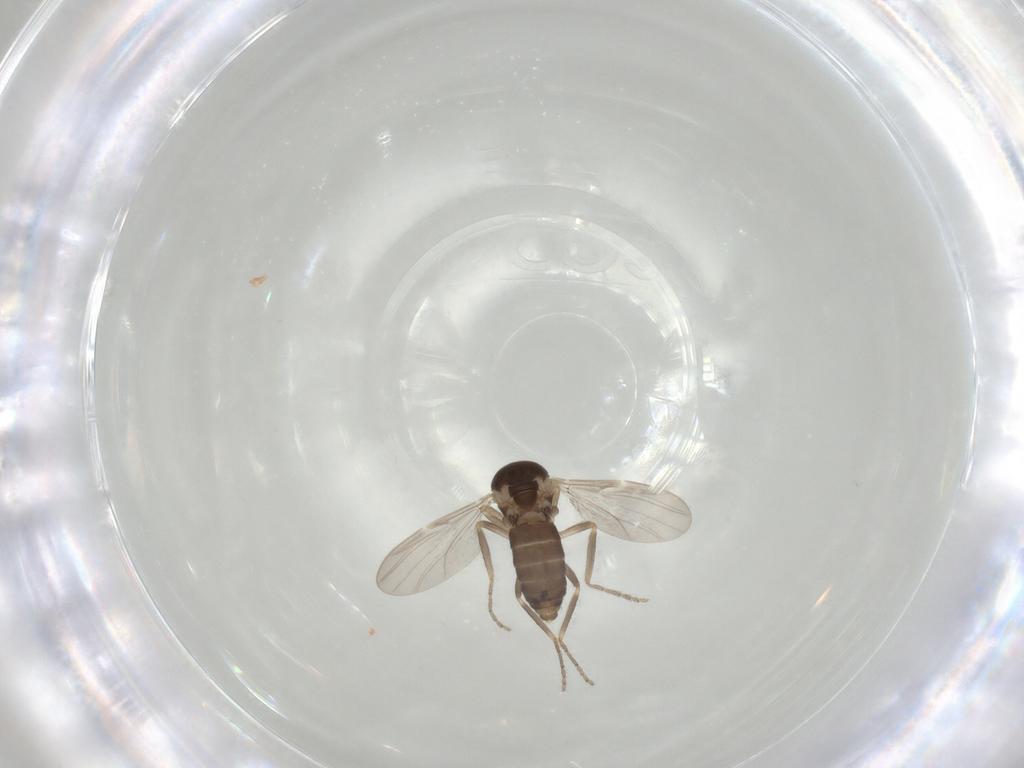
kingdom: Animalia
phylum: Arthropoda
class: Insecta
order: Diptera
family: Ceratopogonidae
